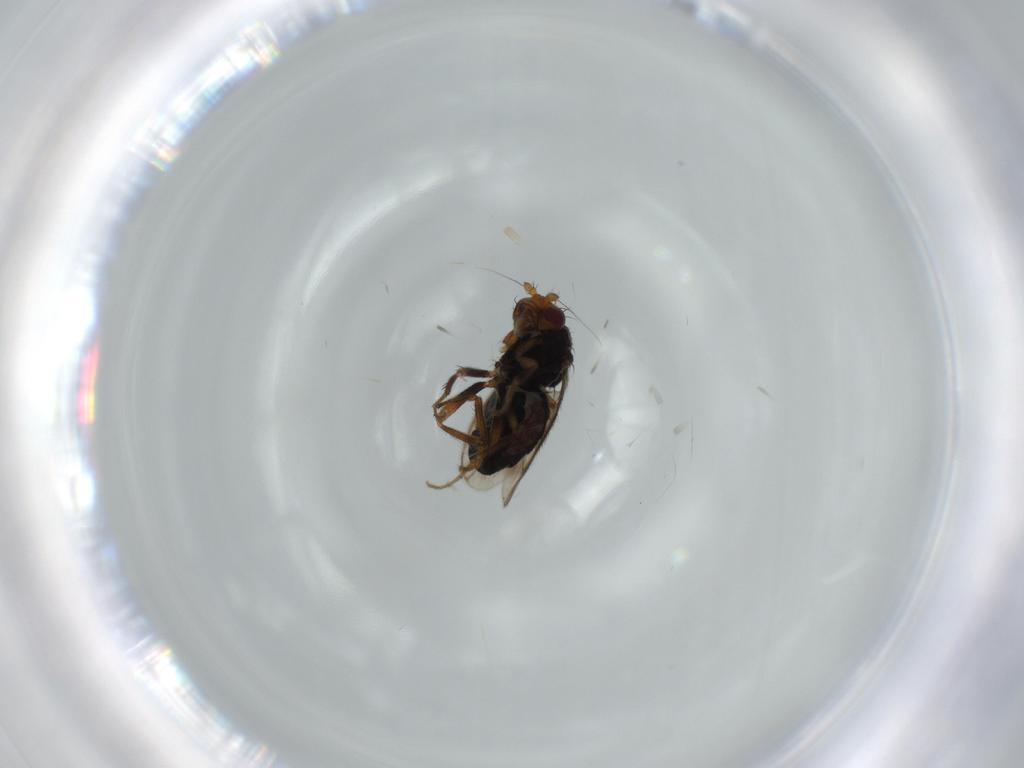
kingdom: Animalia
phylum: Arthropoda
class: Insecta
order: Diptera
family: Sphaeroceridae
